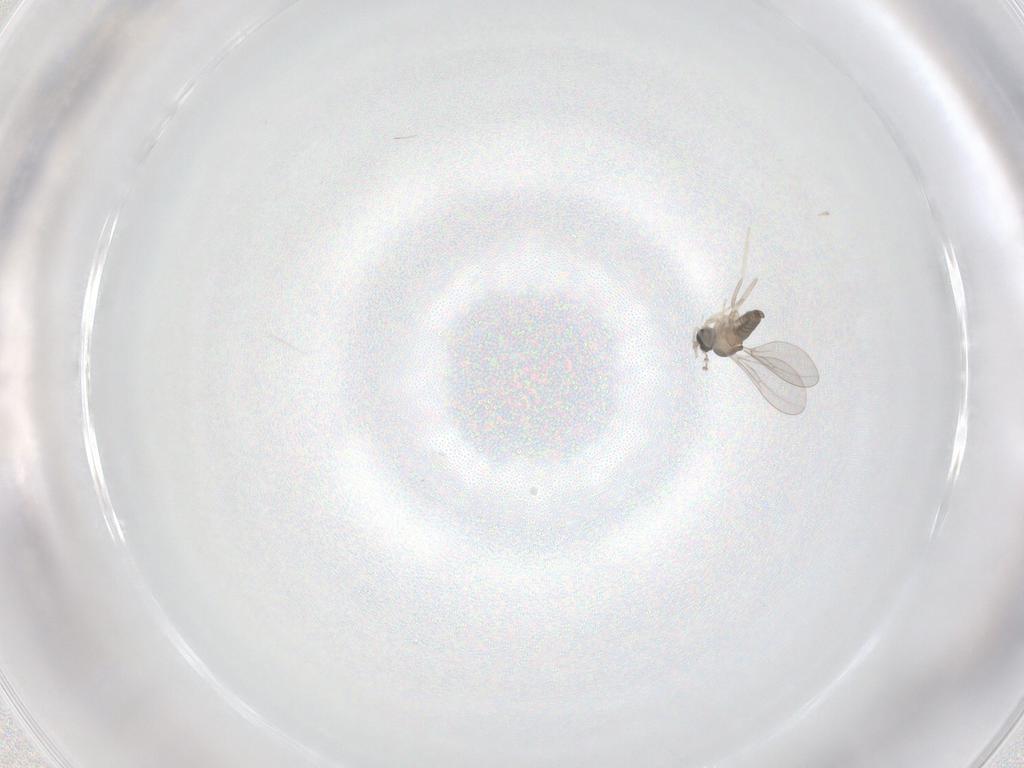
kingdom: Animalia
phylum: Arthropoda
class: Insecta
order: Diptera
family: Cecidomyiidae
